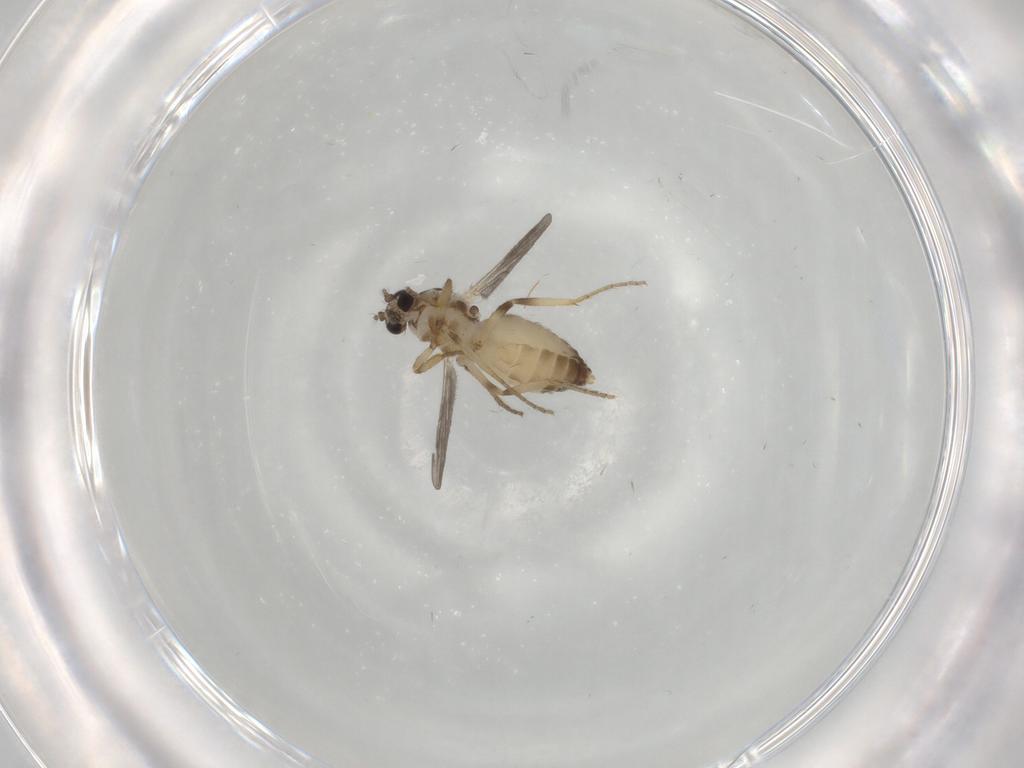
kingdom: Animalia
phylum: Arthropoda
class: Insecta
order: Diptera
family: Ceratopogonidae
